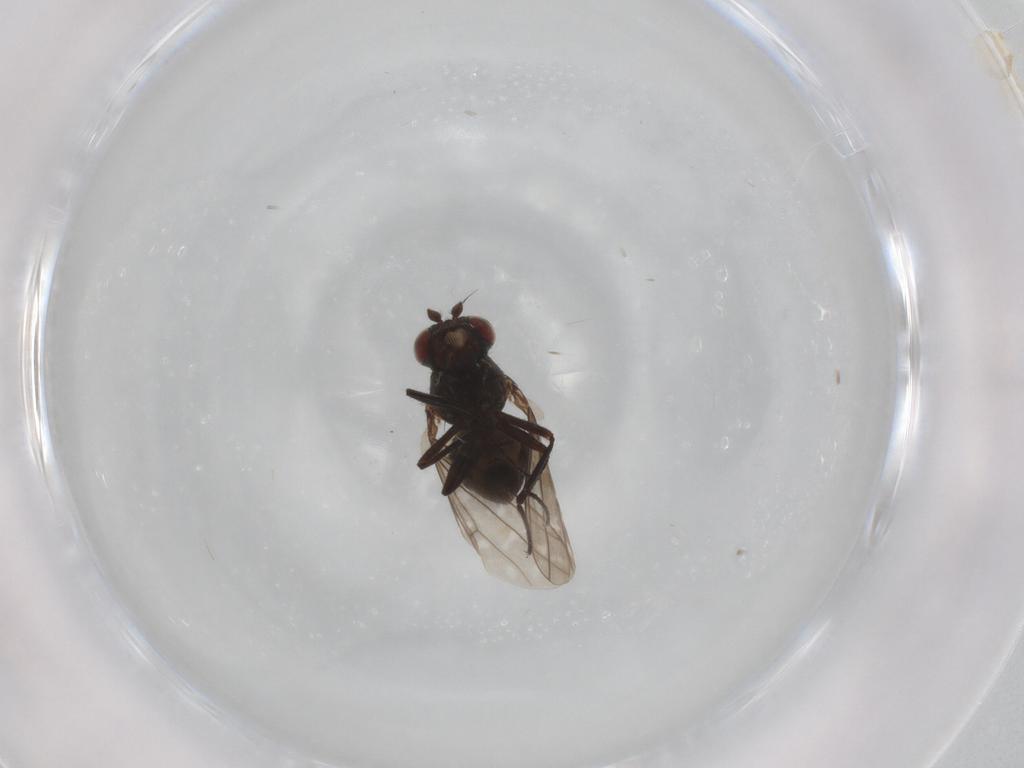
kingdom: Animalia
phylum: Arthropoda
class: Insecta
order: Diptera
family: Ephydridae
